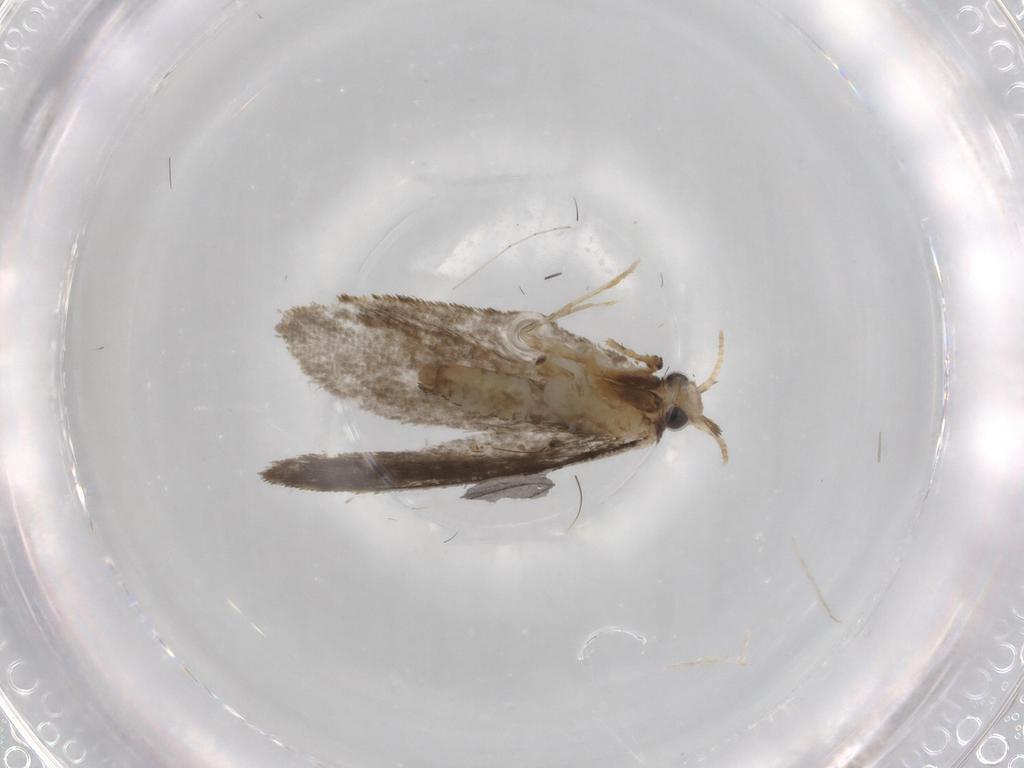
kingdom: Animalia
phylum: Arthropoda
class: Insecta
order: Lepidoptera
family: Psychidae
